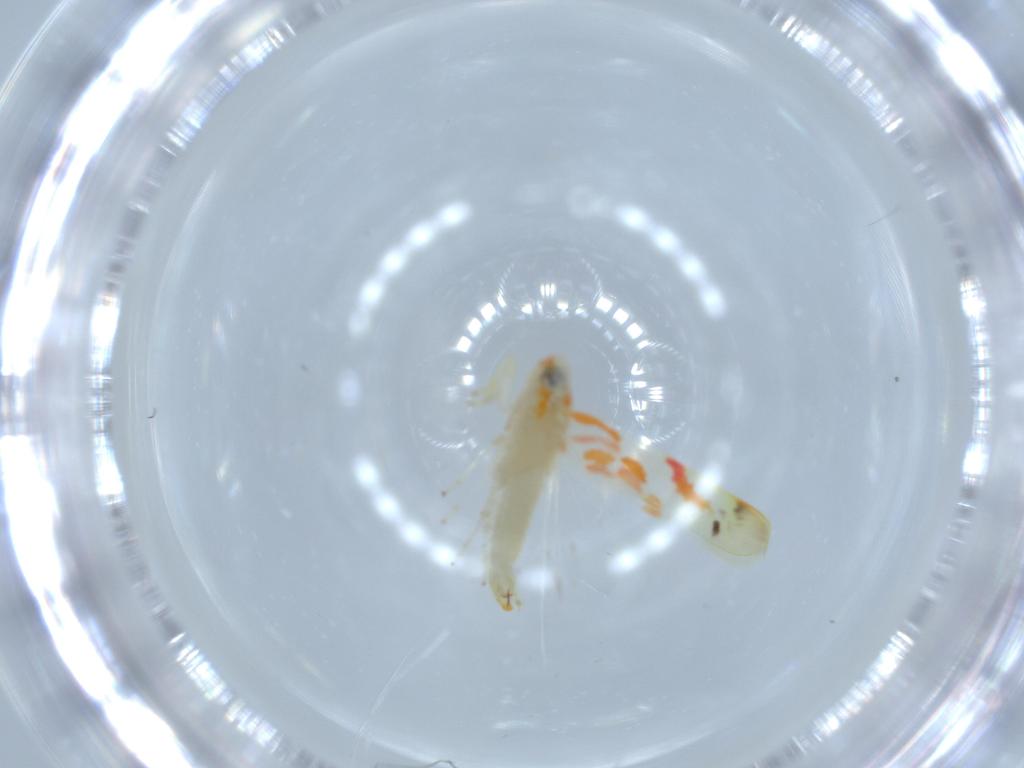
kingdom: Animalia
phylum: Arthropoda
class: Insecta
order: Hemiptera
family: Cicadellidae
